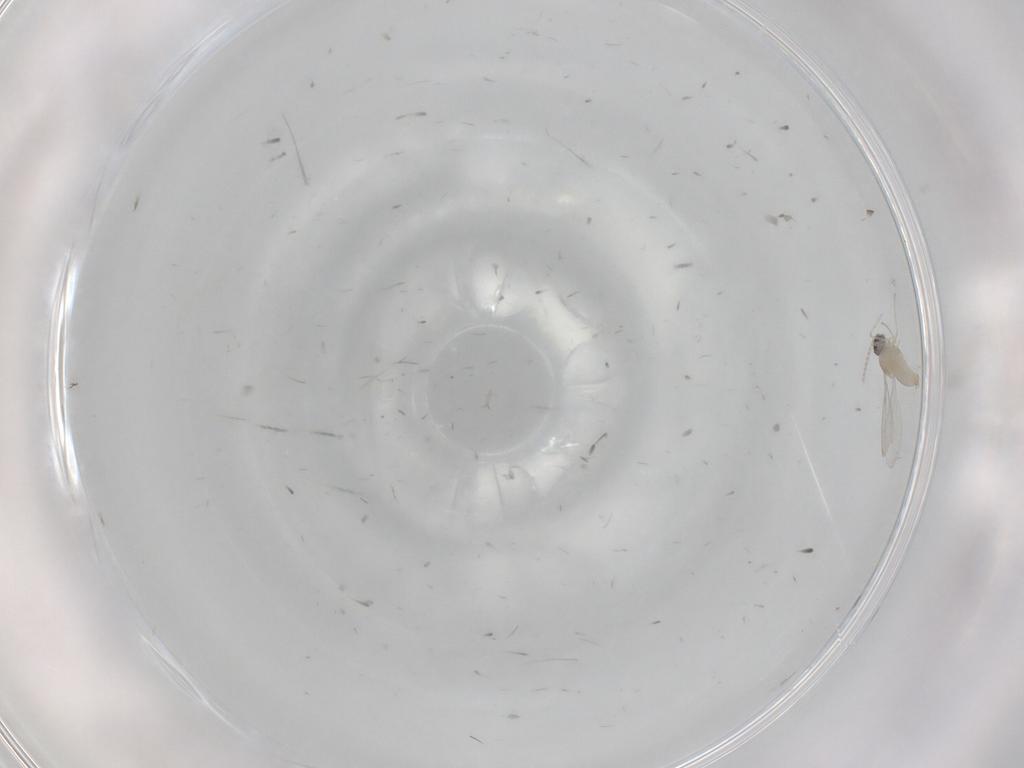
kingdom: Animalia
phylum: Arthropoda
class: Insecta
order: Diptera
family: Cecidomyiidae
